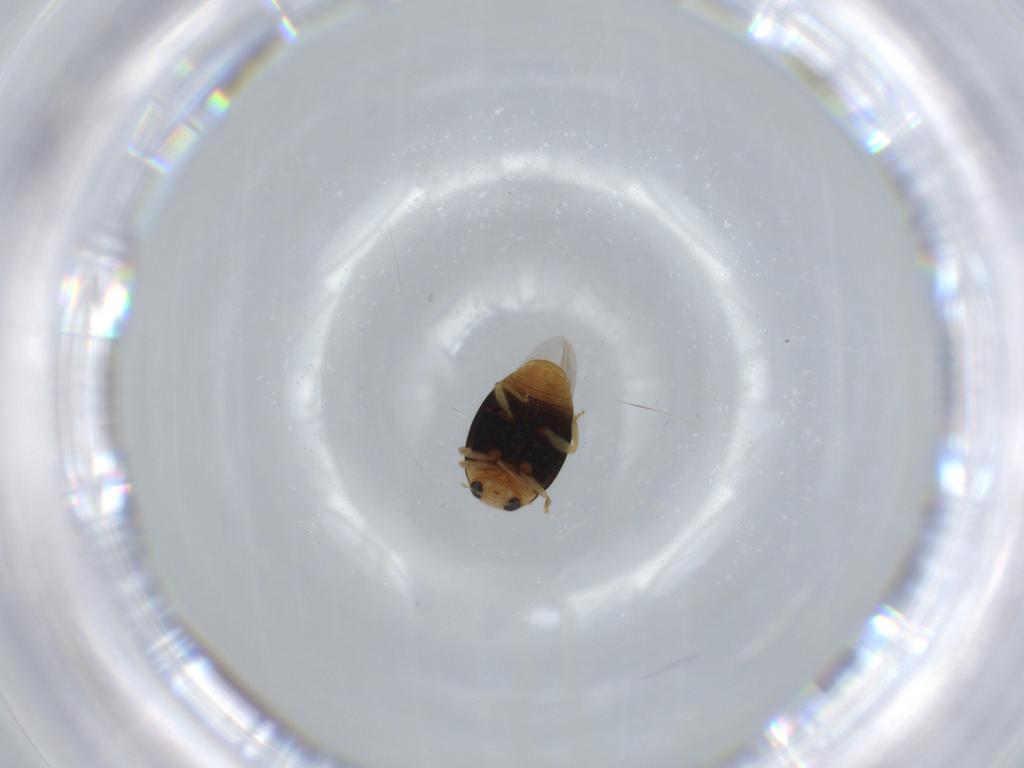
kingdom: Animalia
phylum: Arthropoda
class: Insecta
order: Coleoptera
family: Coccinellidae
